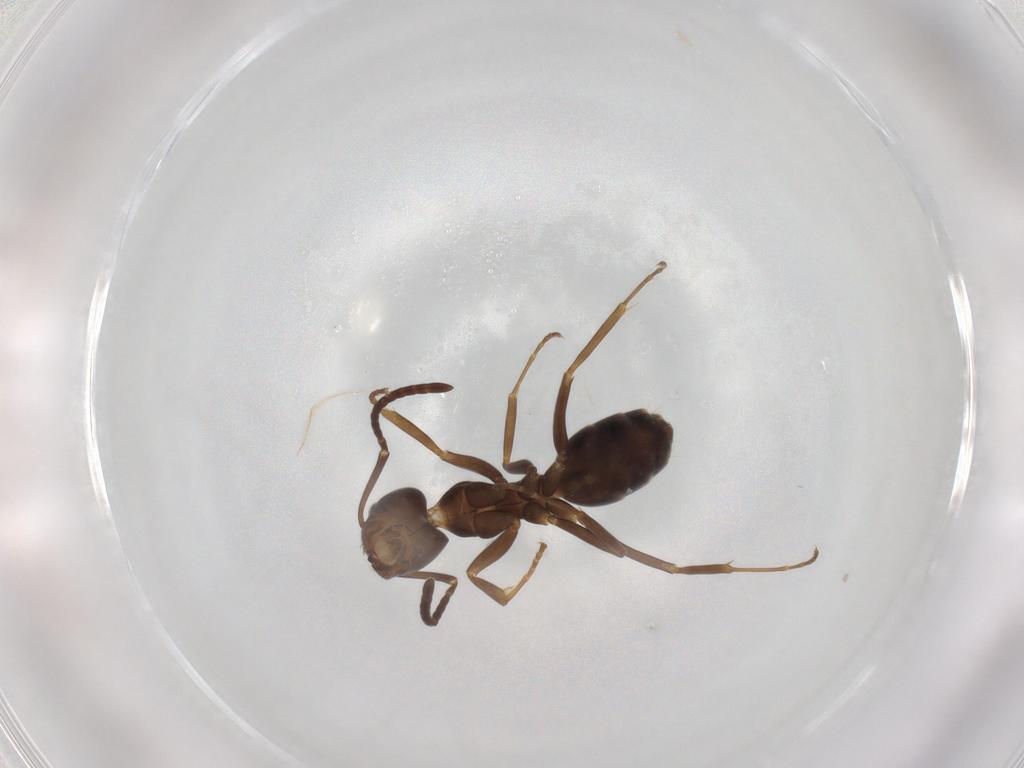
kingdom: Animalia
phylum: Arthropoda
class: Insecta
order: Hymenoptera
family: Formicidae
